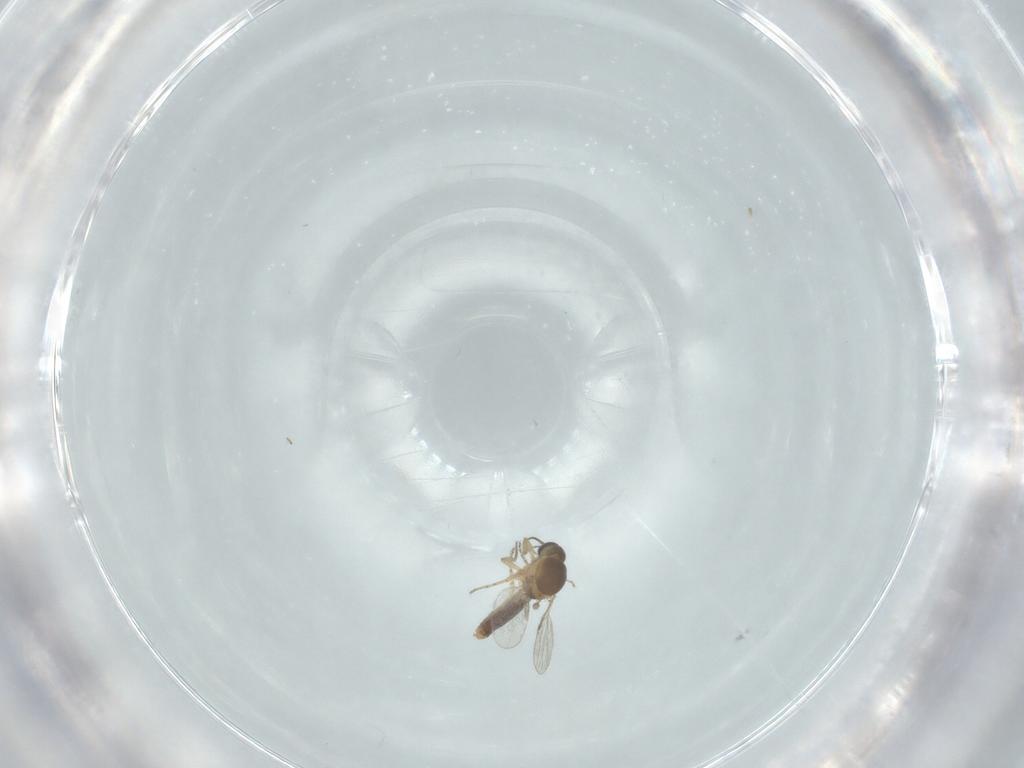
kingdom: Animalia
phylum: Arthropoda
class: Insecta
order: Diptera
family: Ceratopogonidae
